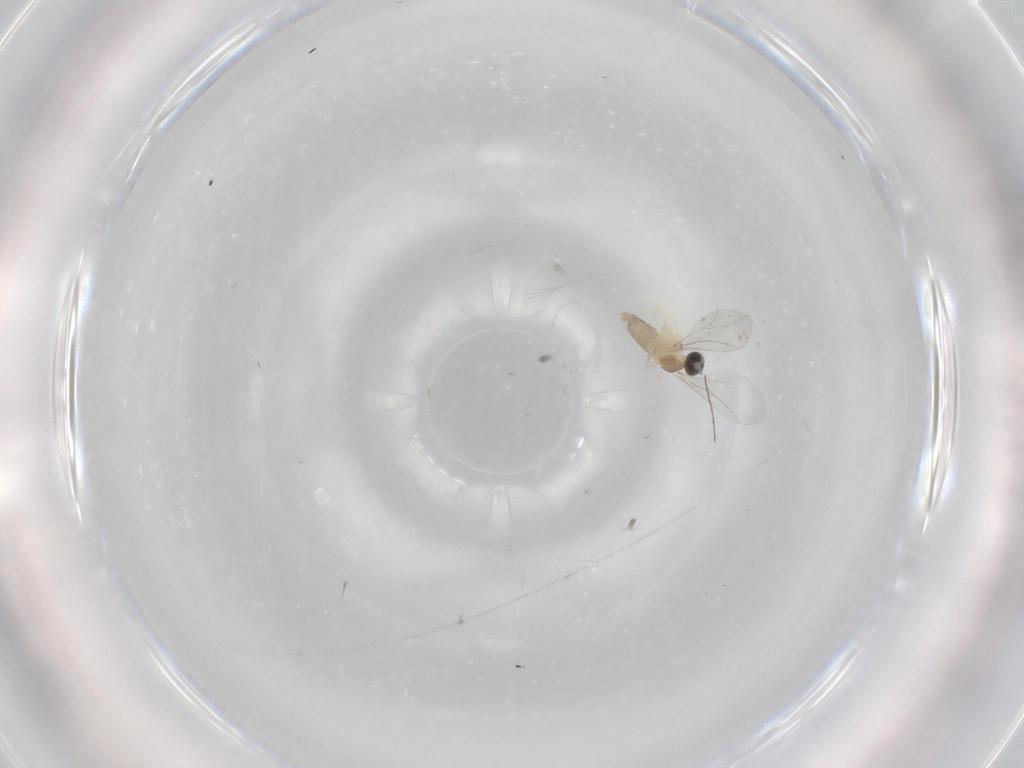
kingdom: Animalia
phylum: Arthropoda
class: Insecta
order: Diptera
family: Cecidomyiidae
